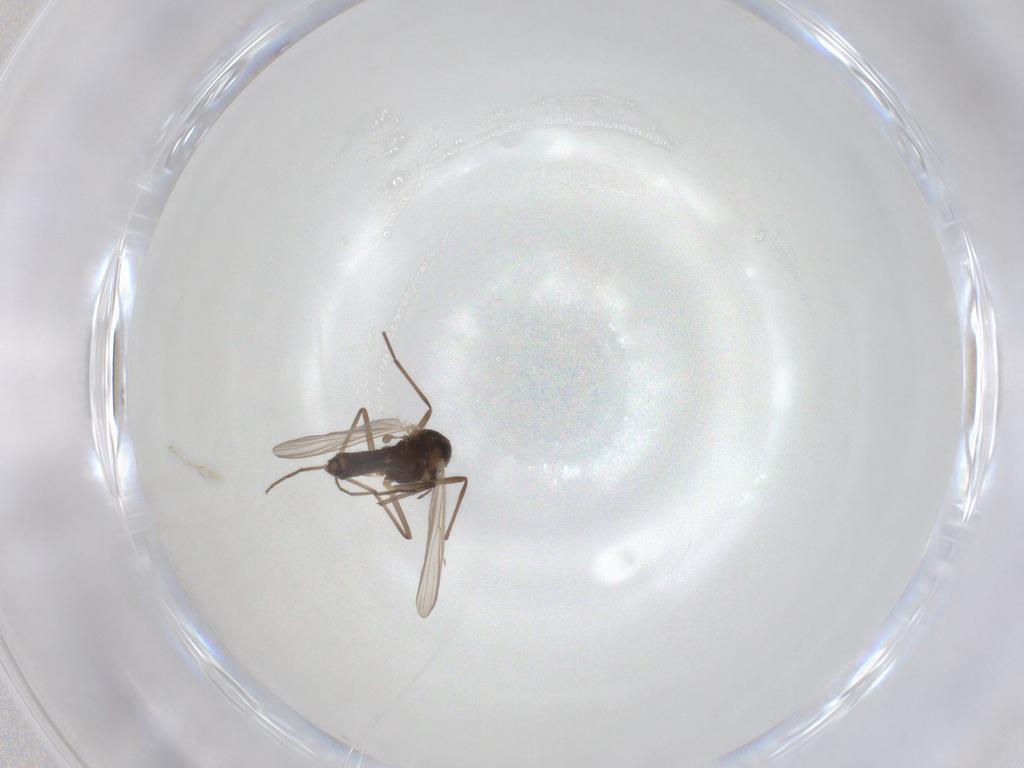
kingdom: Animalia
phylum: Arthropoda
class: Insecta
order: Diptera
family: Chironomidae
